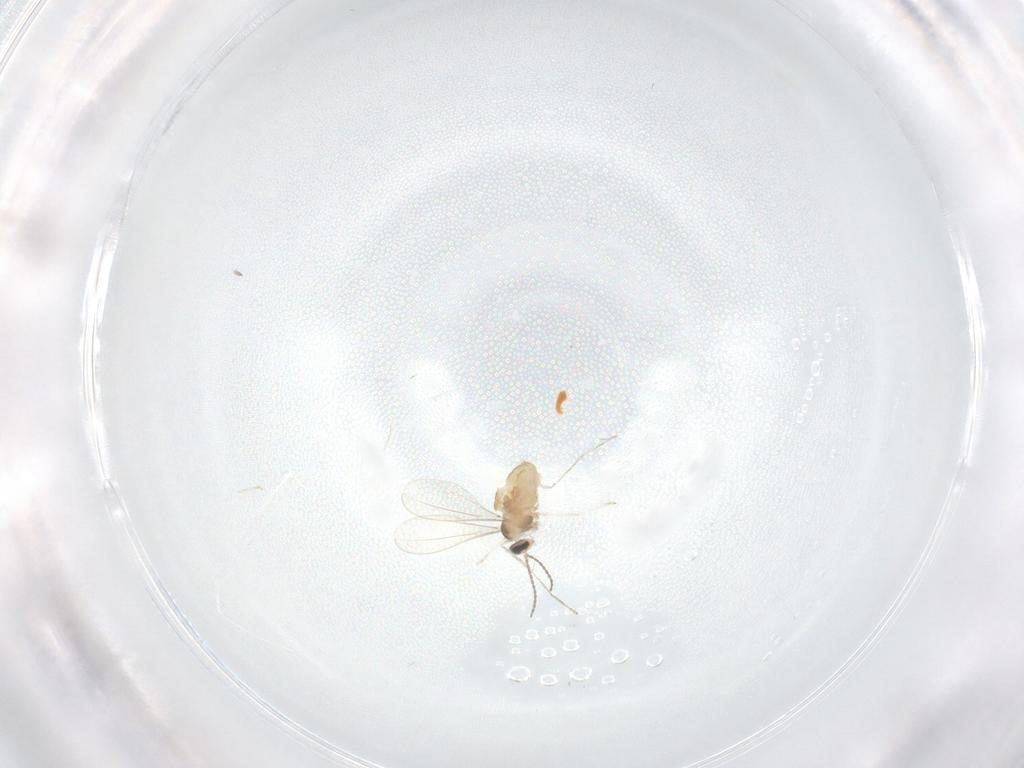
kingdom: Animalia
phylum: Arthropoda
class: Insecta
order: Diptera
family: Cecidomyiidae
